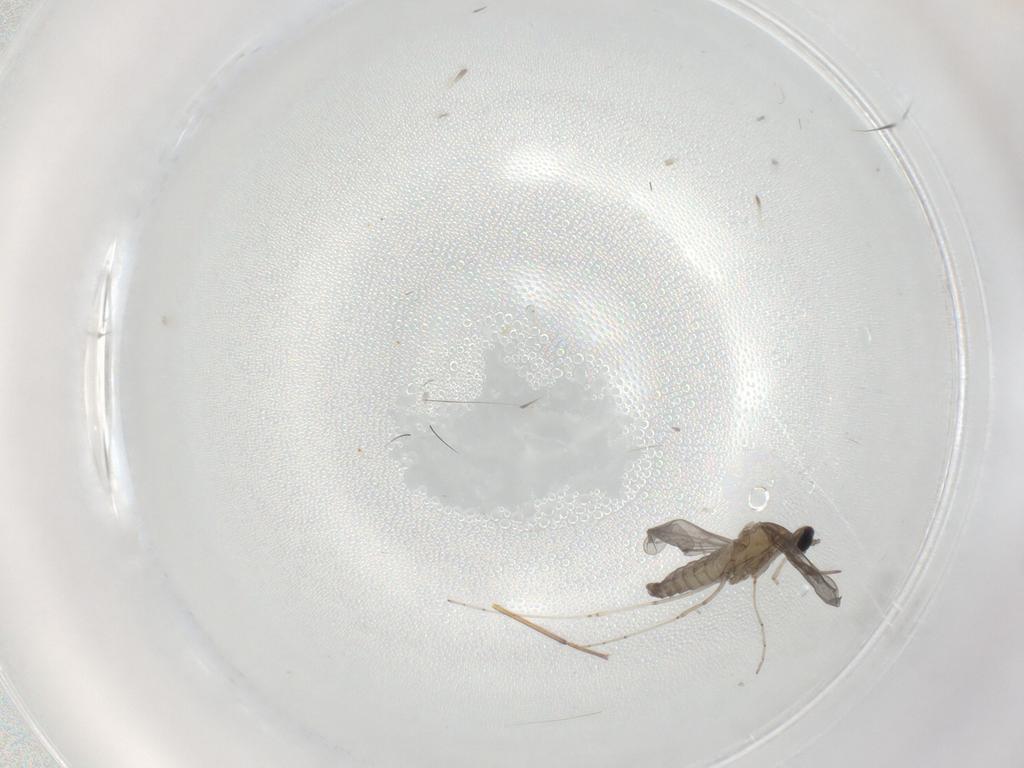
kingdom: Animalia
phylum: Arthropoda
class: Insecta
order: Diptera
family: Cecidomyiidae
